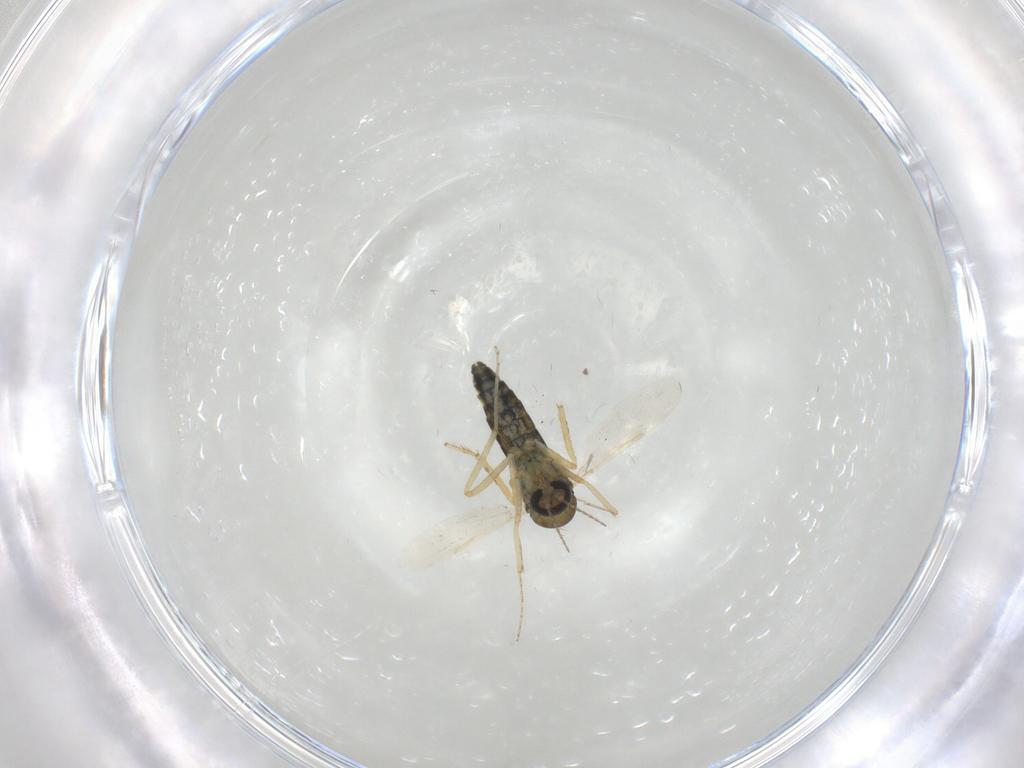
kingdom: Animalia
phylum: Arthropoda
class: Insecta
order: Diptera
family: Ceratopogonidae
